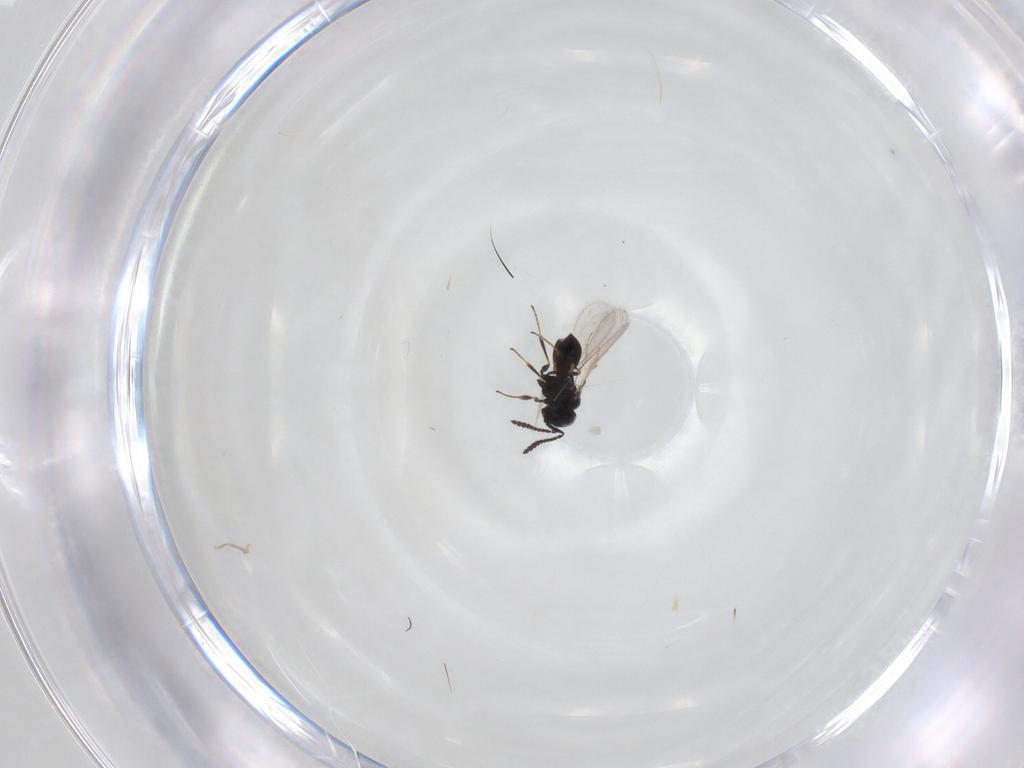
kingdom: Animalia
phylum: Arthropoda
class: Insecta
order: Hymenoptera
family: Scelionidae
